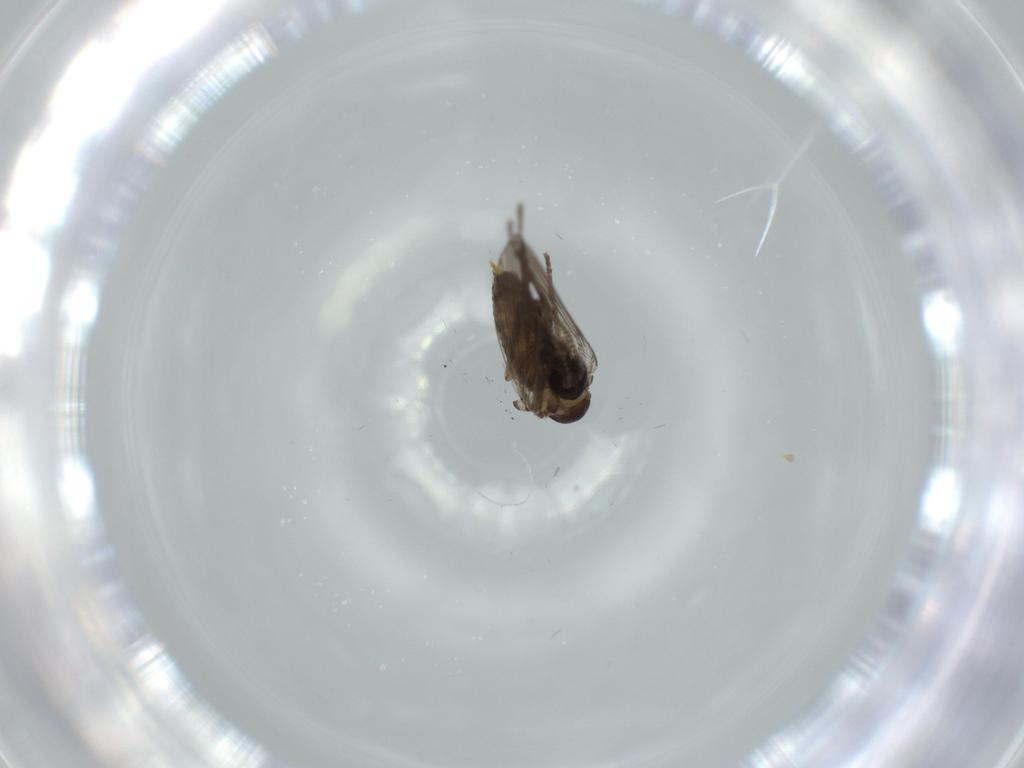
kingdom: Animalia
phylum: Arthropoda
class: Insecta
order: Diptera
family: Psychodidae
